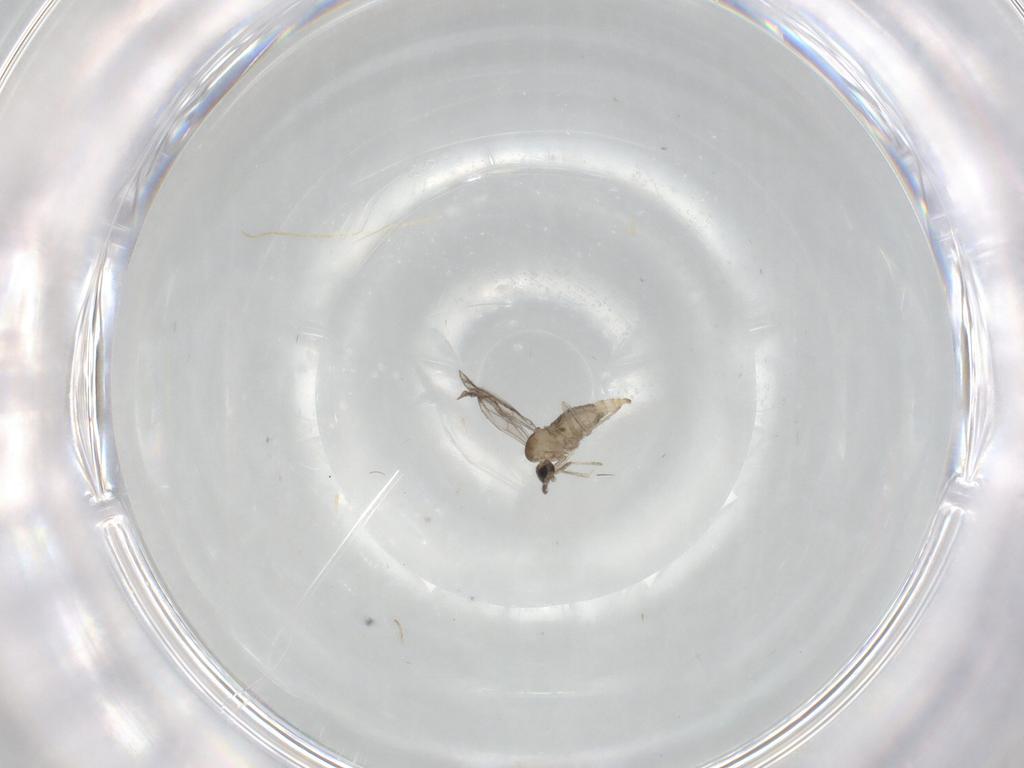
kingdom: Animalia
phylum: Arthropoda
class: Insecta
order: Diptera
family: Cecidomyiidae
